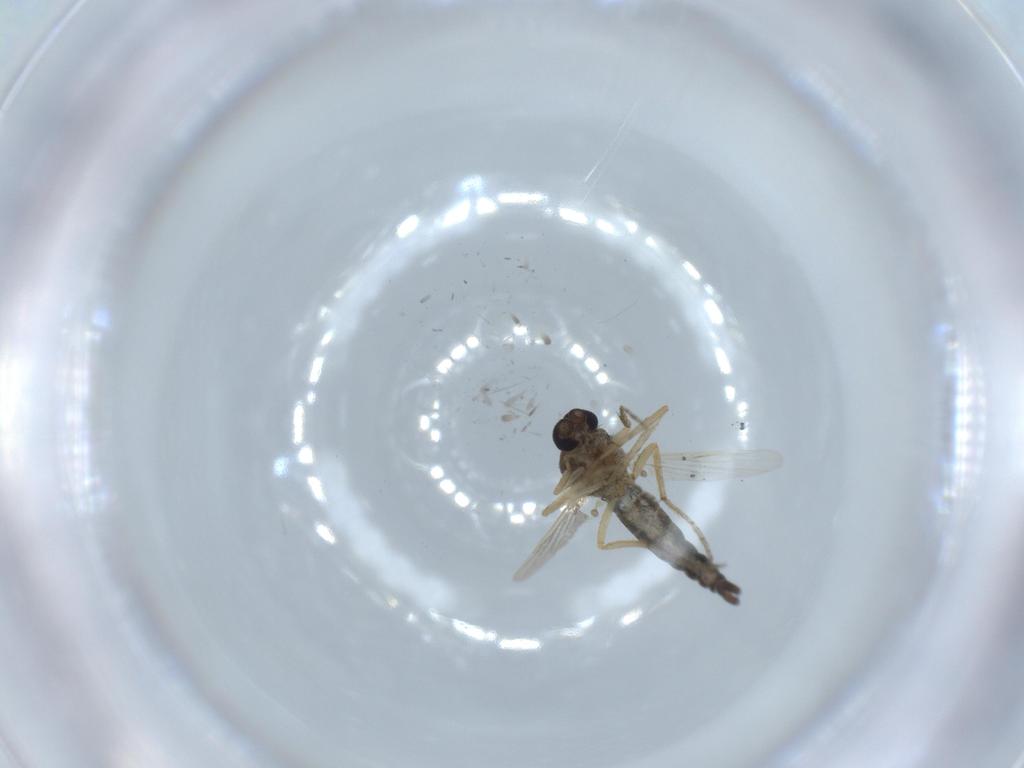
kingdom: Animalia
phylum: Arthropoda
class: Insecta
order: Diptera
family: Ceratopogonidae
